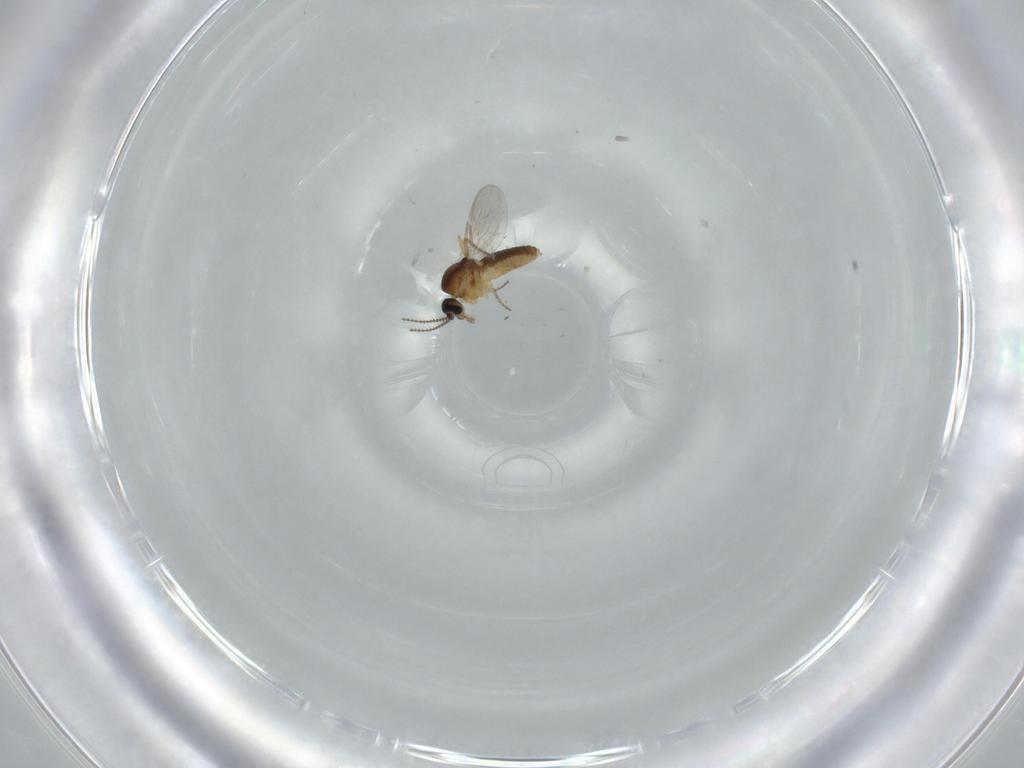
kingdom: Animalia
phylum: Arthropoda
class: Insecta
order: Diptera
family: Ceratopogonidae
